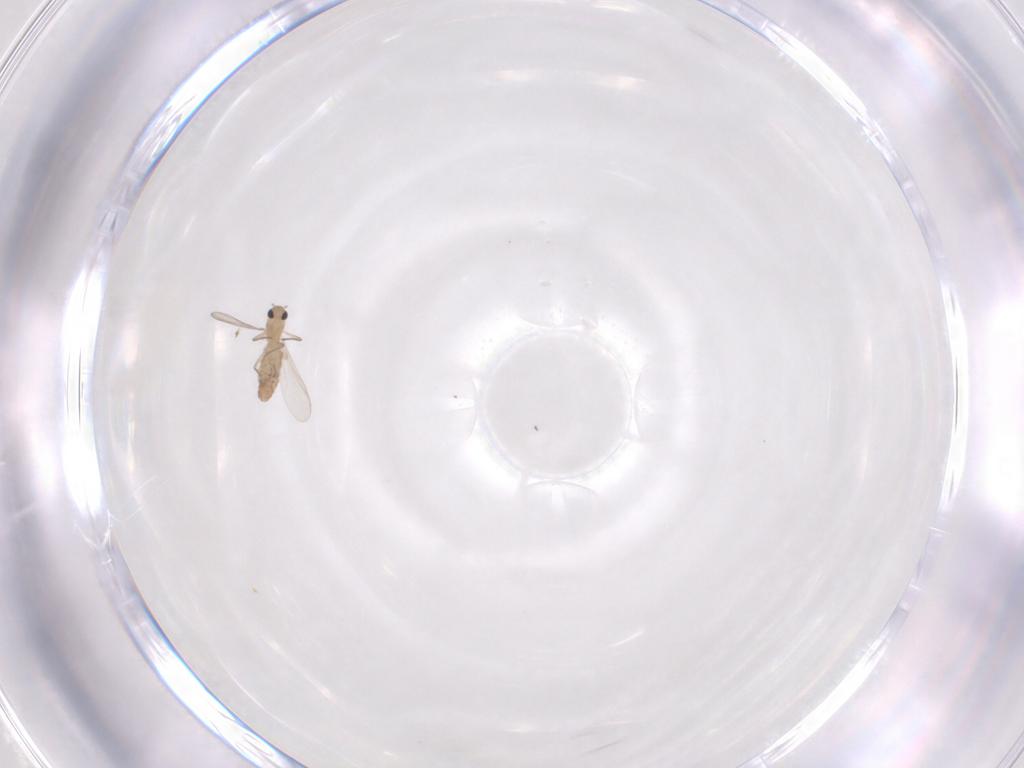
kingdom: Animalia
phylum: Arthropoda
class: Insecta
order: Diptera
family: Chironomidae
